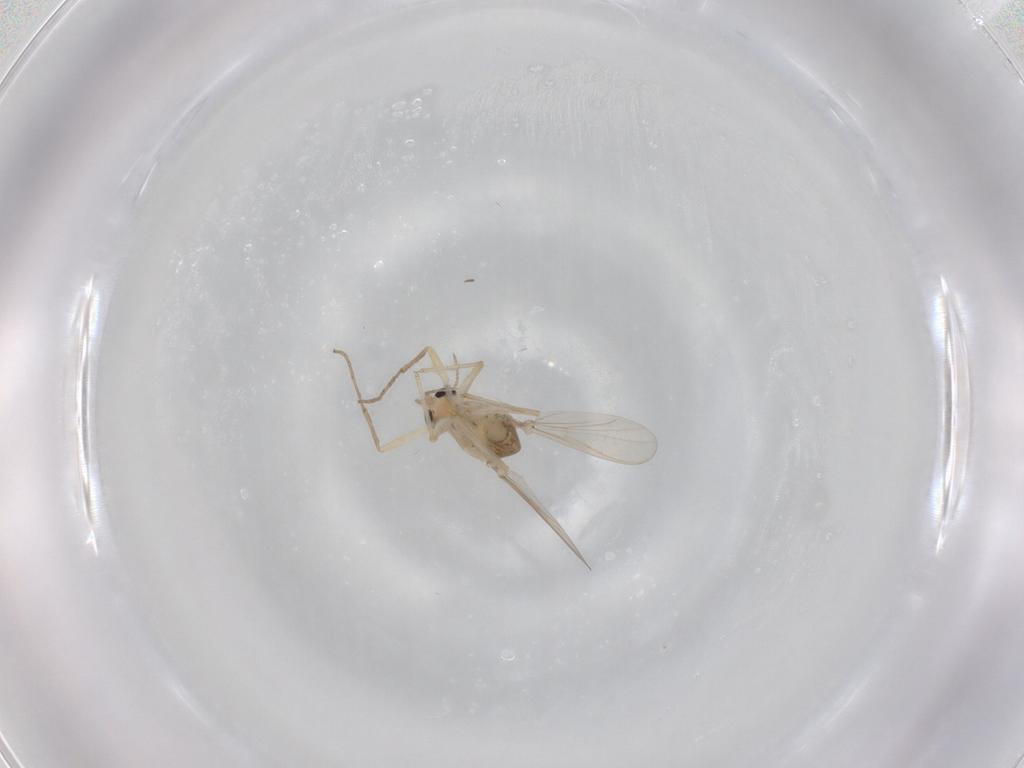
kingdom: Animalia
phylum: Arthropoda
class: Insecta
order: Diptera
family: Chironomidae
